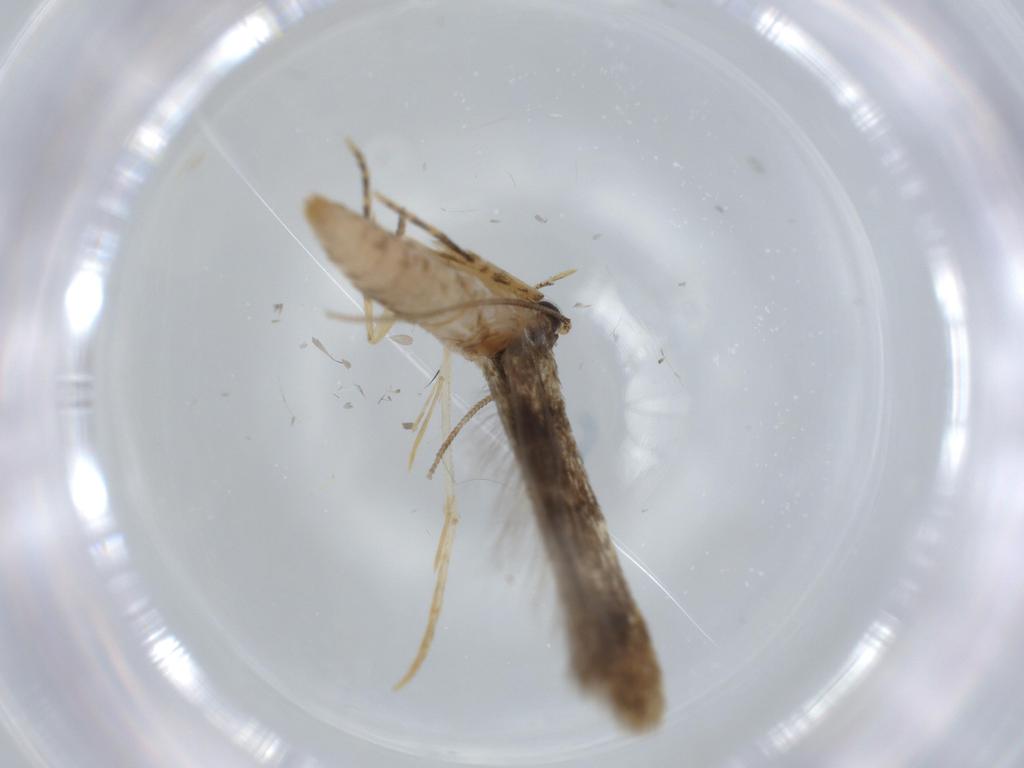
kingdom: Animalia
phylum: Arthropoda
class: Insecta
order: Lepidoptera
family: Tineidae
